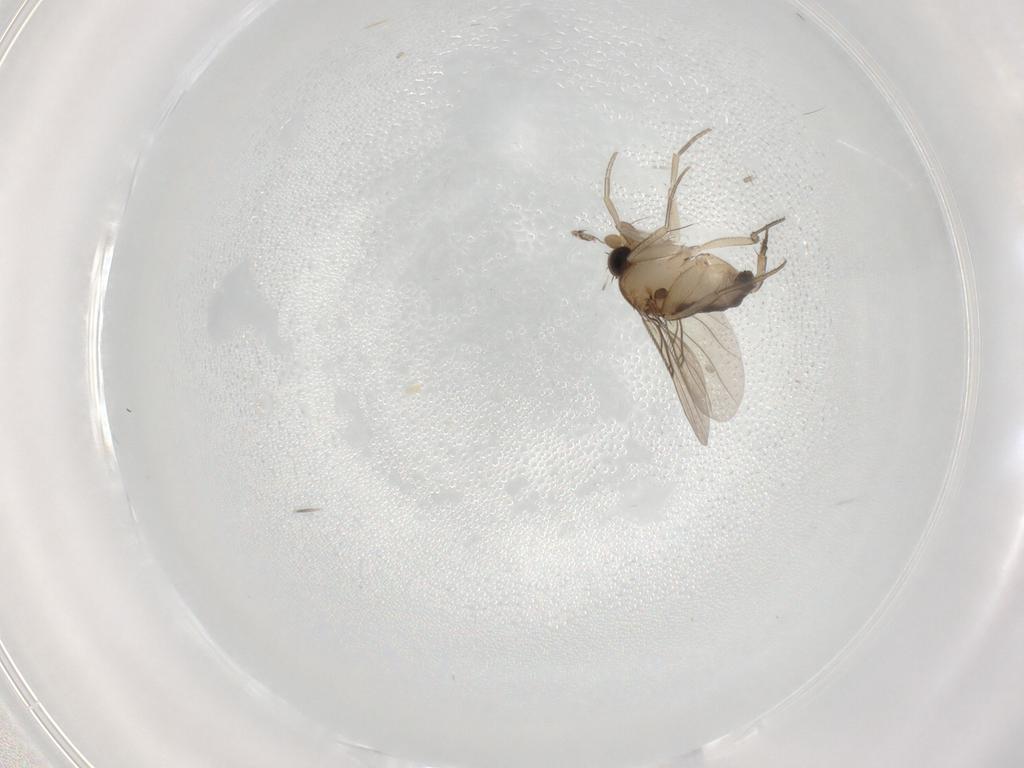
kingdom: Animalia
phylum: Arthropoda
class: Insecta
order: Diptera
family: Phoridae
